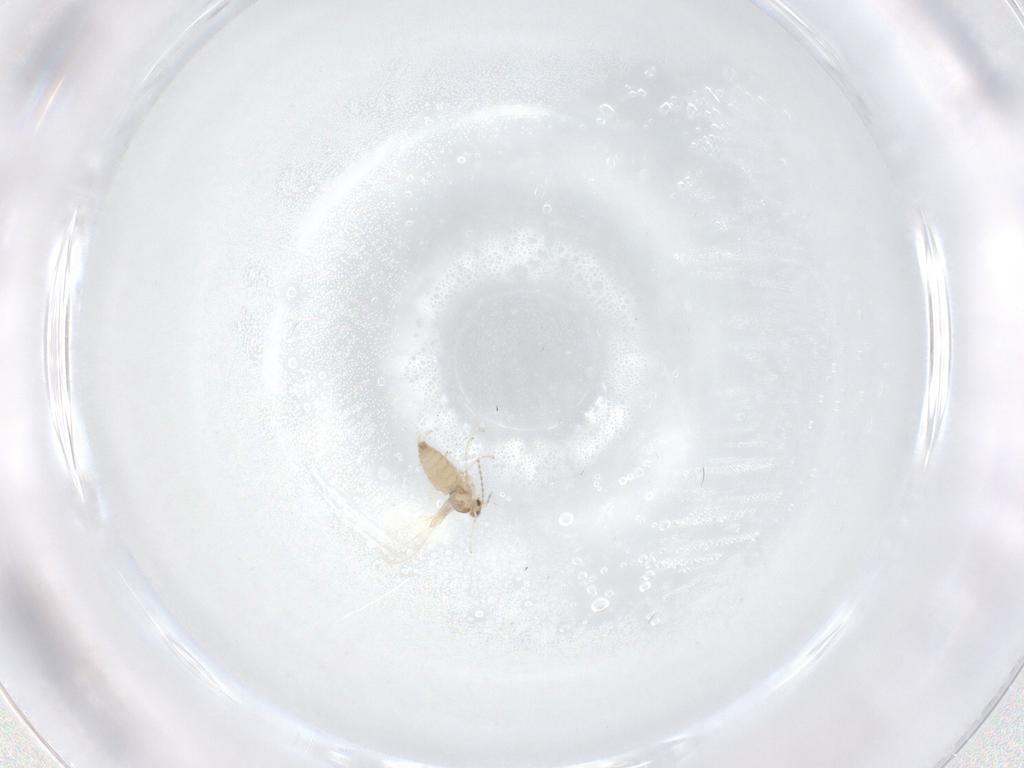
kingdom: Animalia
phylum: Arthropoda
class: Insecta
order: Diptera
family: Cecidomyiidae
